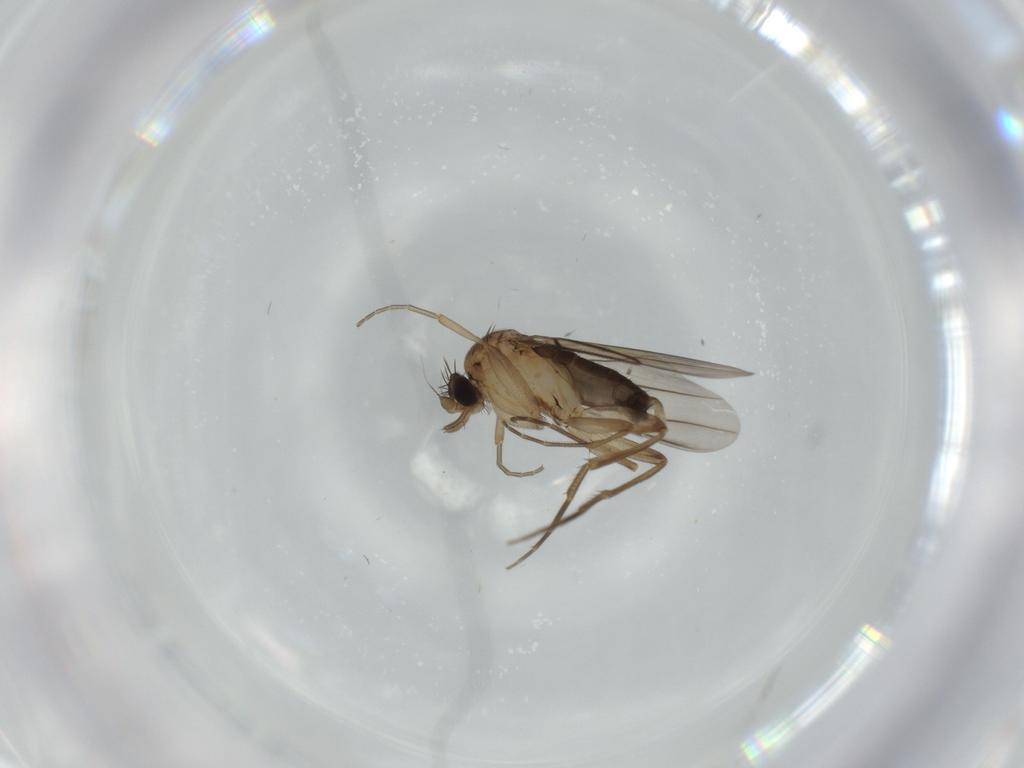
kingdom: Animalia
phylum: Arthropoda
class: Insecta
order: Diptera
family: Phoridae
